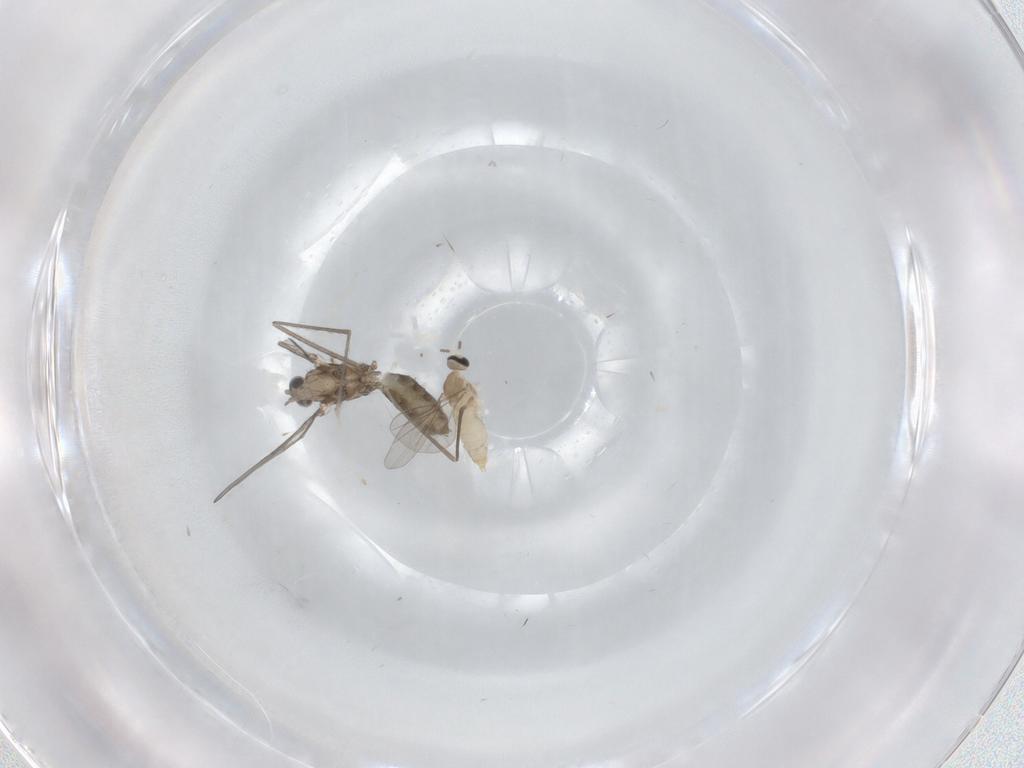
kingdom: Animalia
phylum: Arthropoda
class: Insecta
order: Diptera
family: Cecidomyiidae
